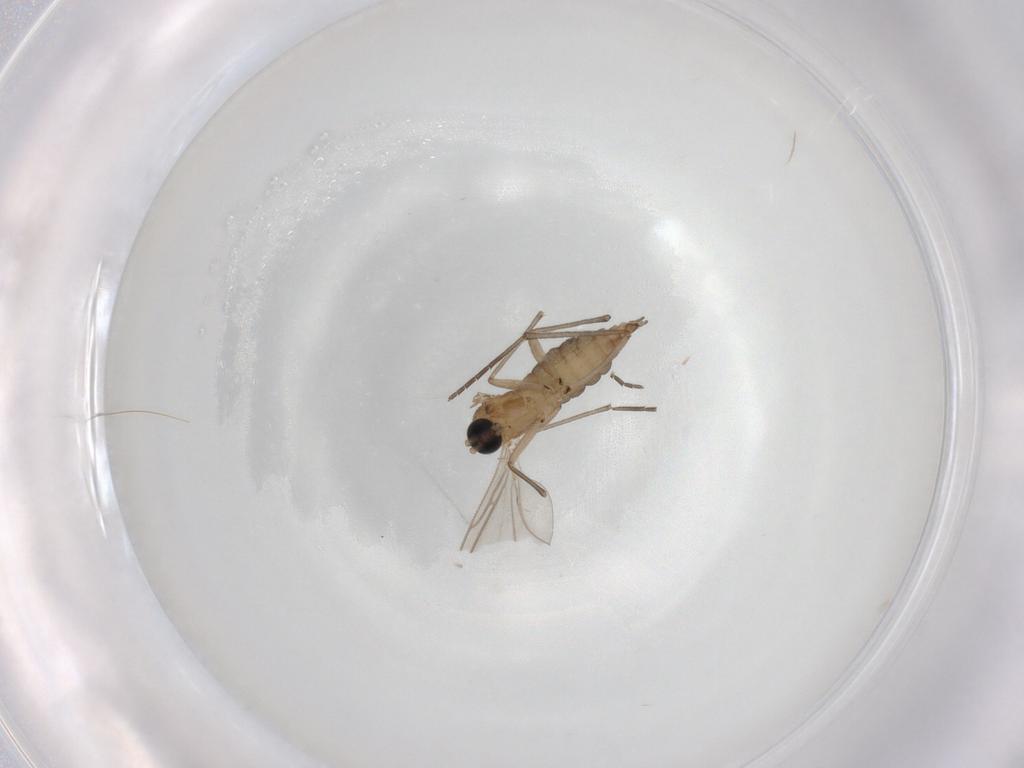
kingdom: Animalia
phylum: Arthropoda
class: Insecta
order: Diptera
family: Sciaridae
